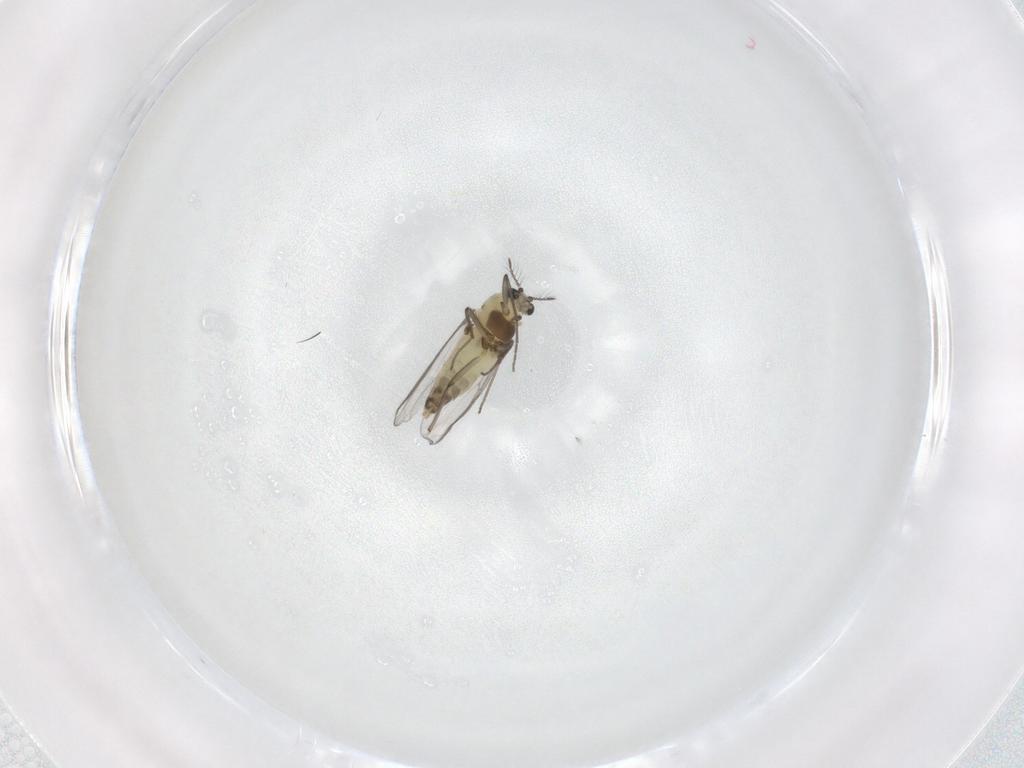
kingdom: Animalia
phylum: Arthropoda
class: Insecta
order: Diptera
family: Chironomidae
